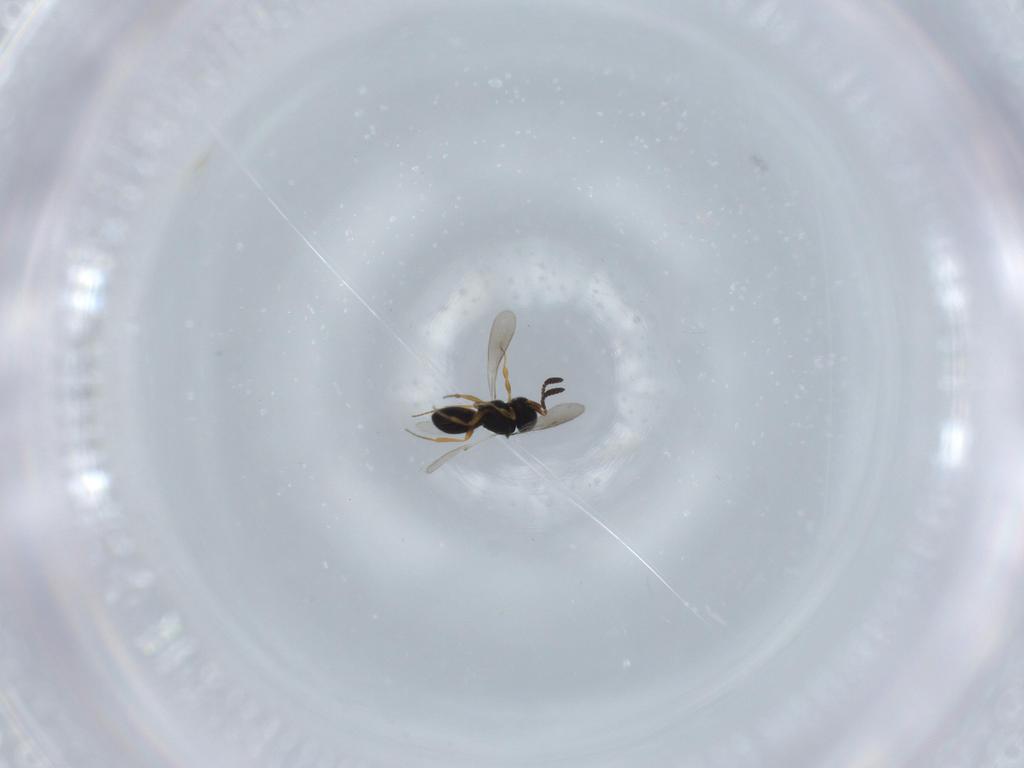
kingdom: Animalia
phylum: Arthropoda
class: Insecta
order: Hymenoptera
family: Scelionidae
